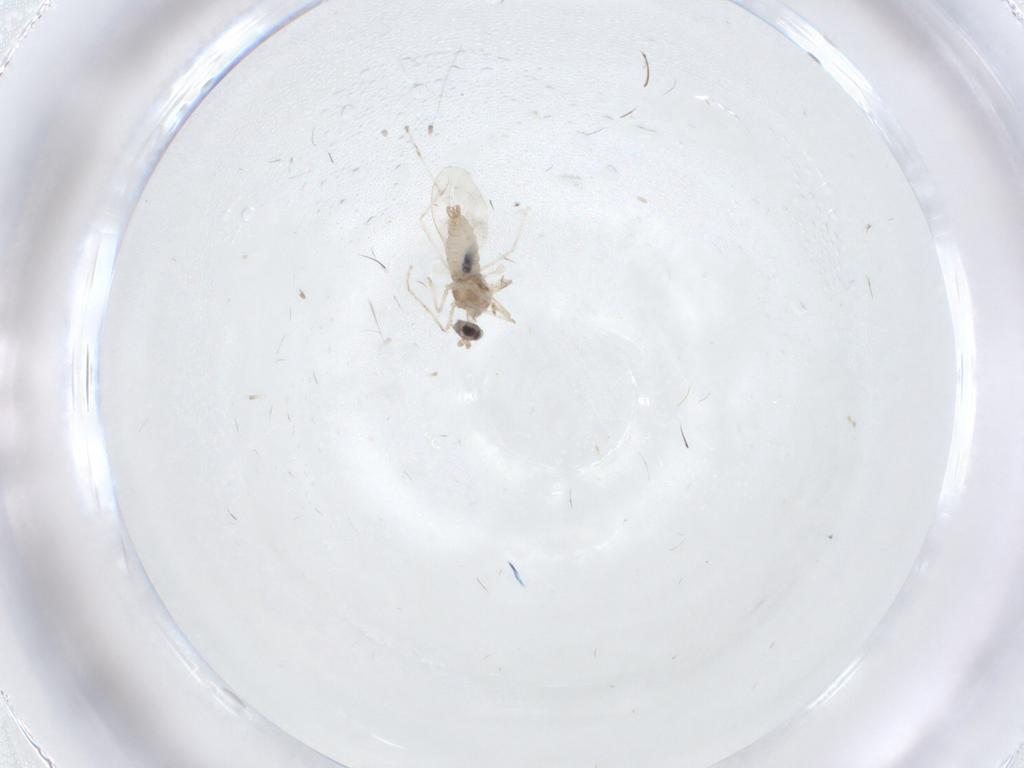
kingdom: Animalia
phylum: Arthropoda
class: Insecta
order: Diptera
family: Cecidomyiidae
